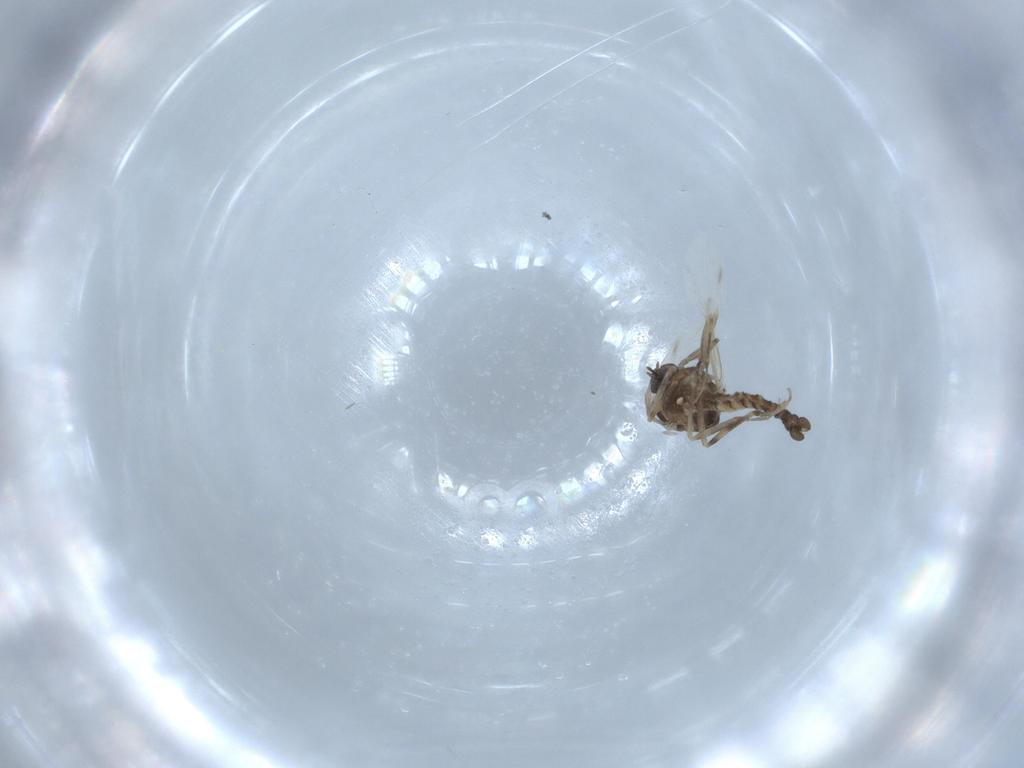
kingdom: Animalia
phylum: Arthropoda
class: Insecta
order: Diptera
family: Ceratopogonidae
